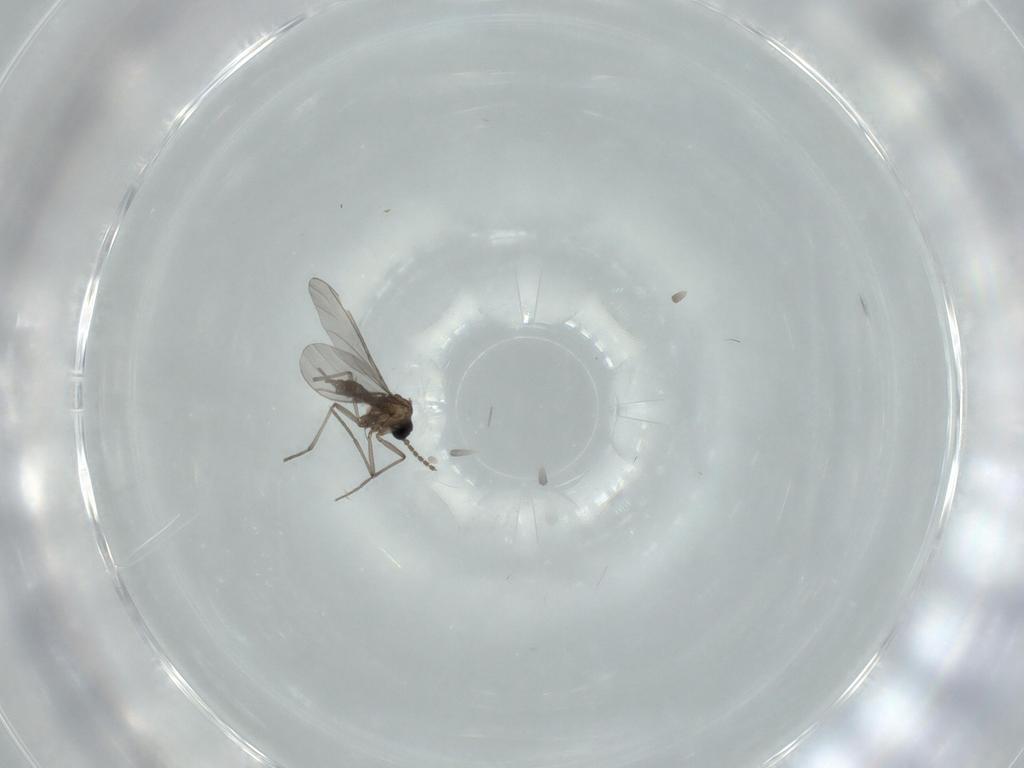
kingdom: Animalia
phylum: Arthropoda
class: Insecta
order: Diptera
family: Sciaridae
